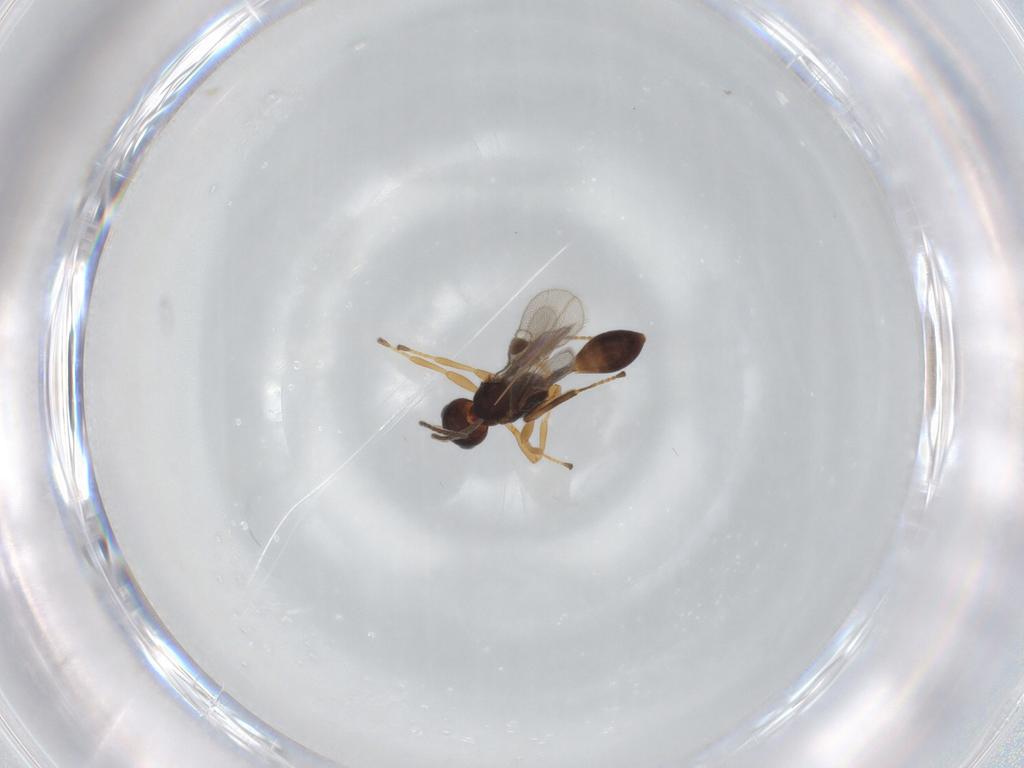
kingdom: Animalia
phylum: Arthropoda
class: Insecta
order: Hymenoptera
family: Braconidae
